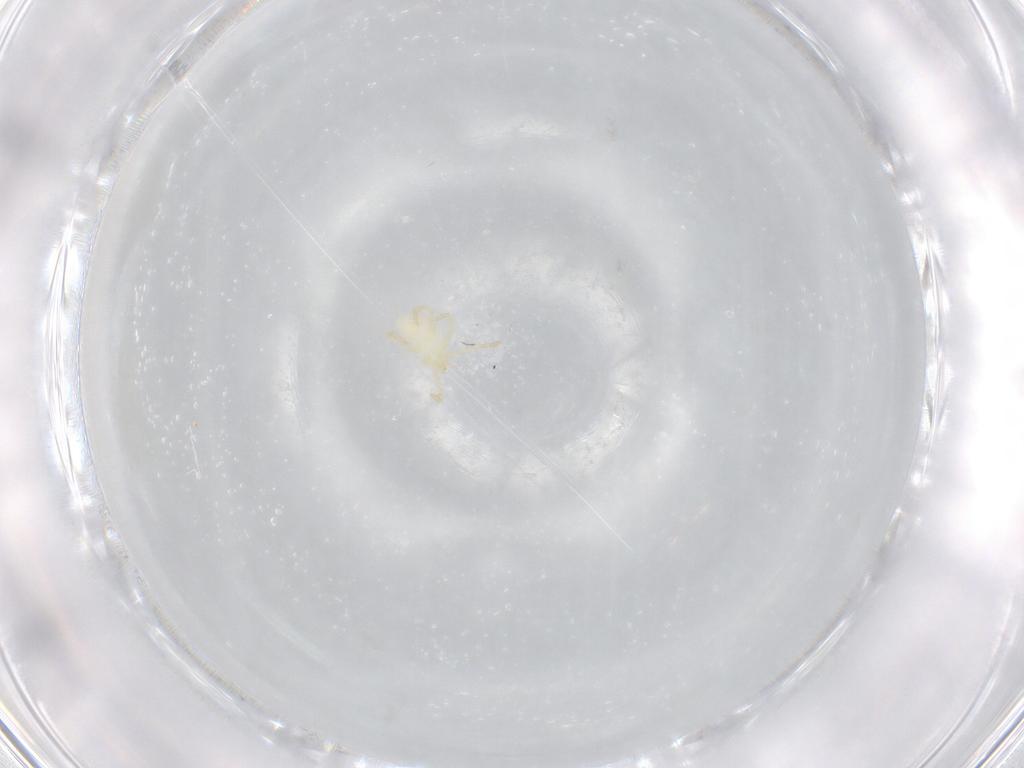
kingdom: Animalia
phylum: Arthropoda
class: Arachnida
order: Trombidiformes
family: Trombidiidae
